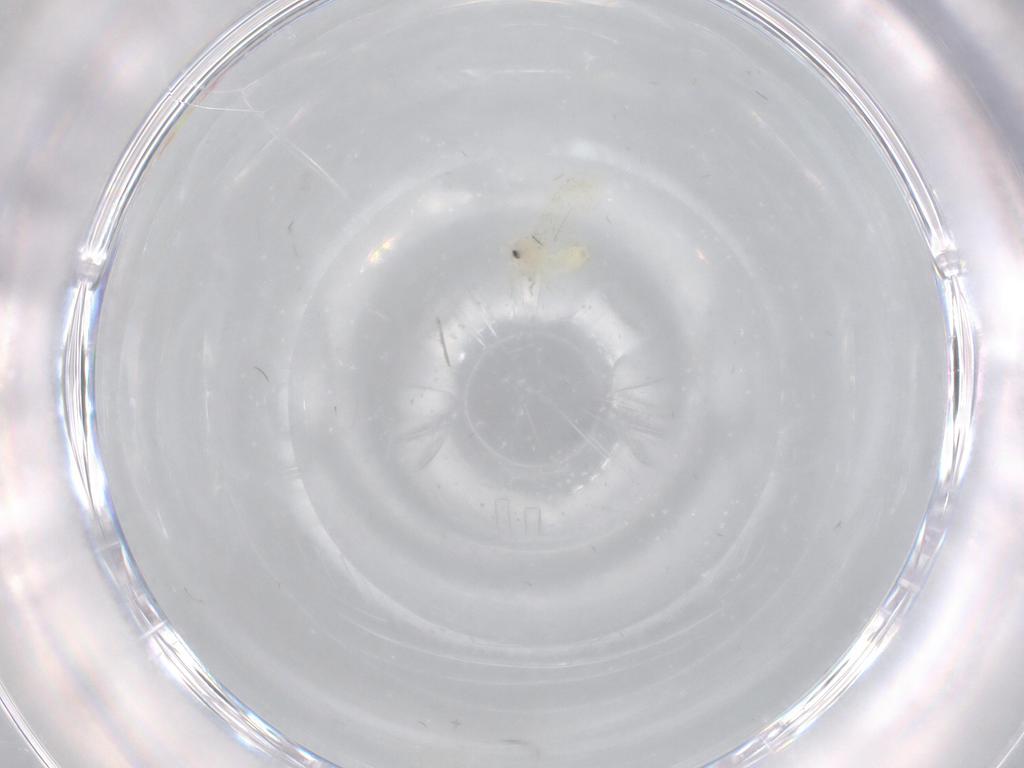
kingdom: Animalia
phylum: Arthropoda
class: Insecta
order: Hemiptera
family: Aleyrodidae
